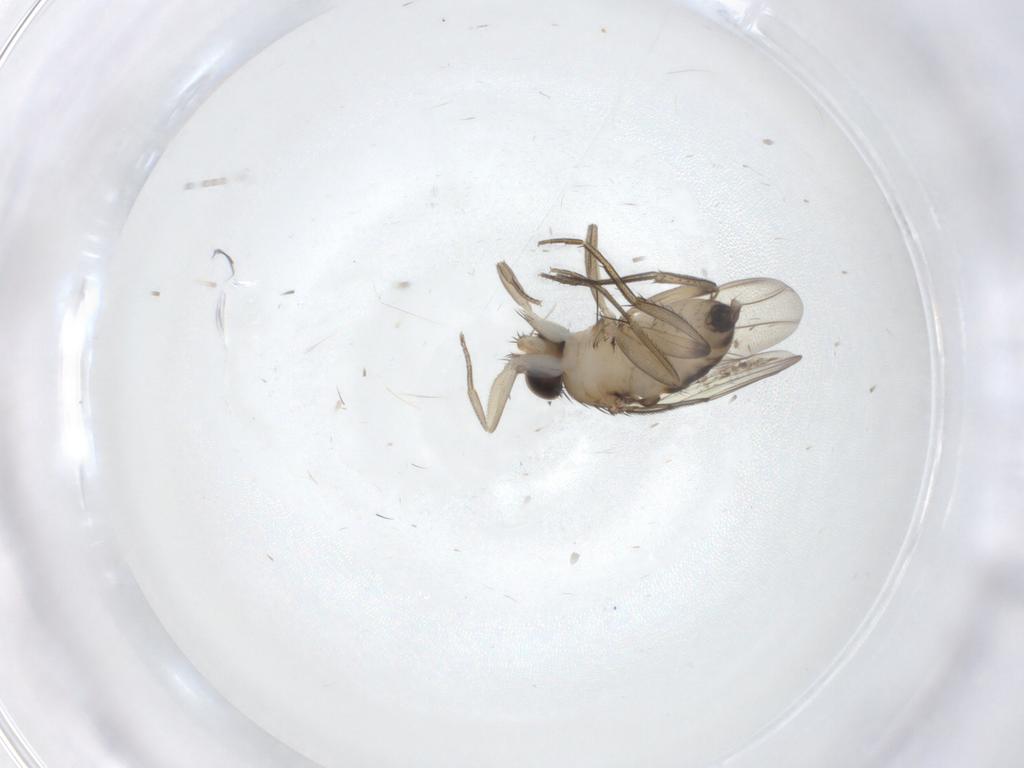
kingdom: Animalia
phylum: Arthropoda
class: Insecta
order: Diptera
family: Phoridae
